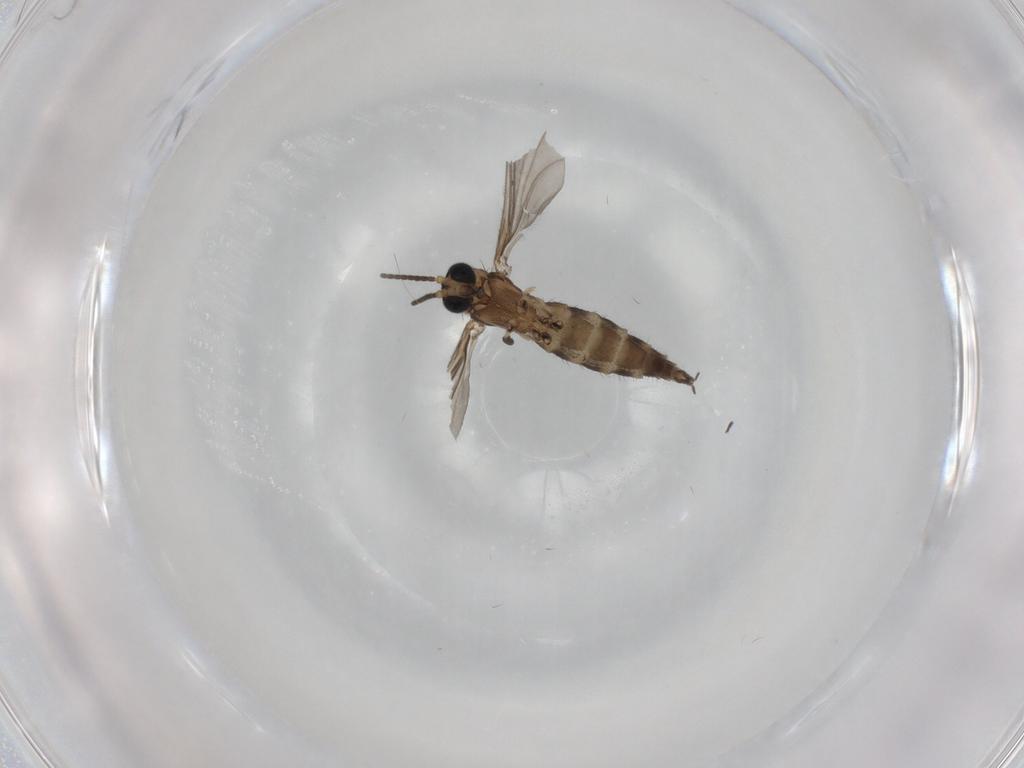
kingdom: Animalia
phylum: Arthropoda
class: Insecta
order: Diptera
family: Sciaridae
